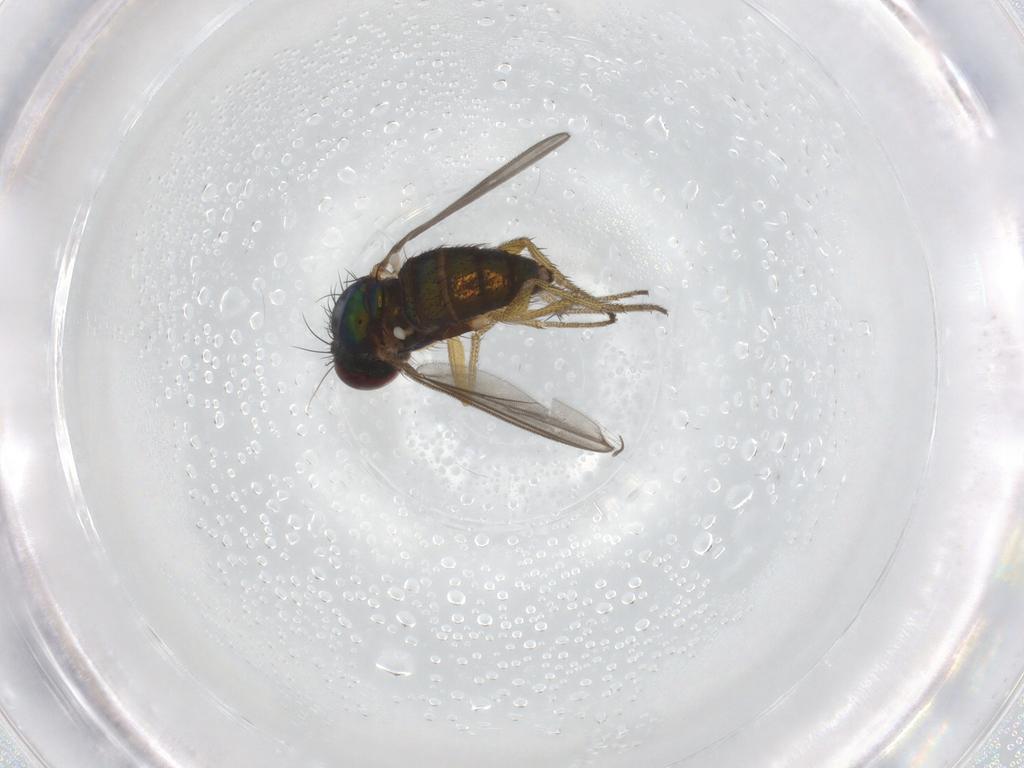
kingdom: Animalia
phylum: Arthropoda
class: Insecta
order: Diptera
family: Chironomidae
